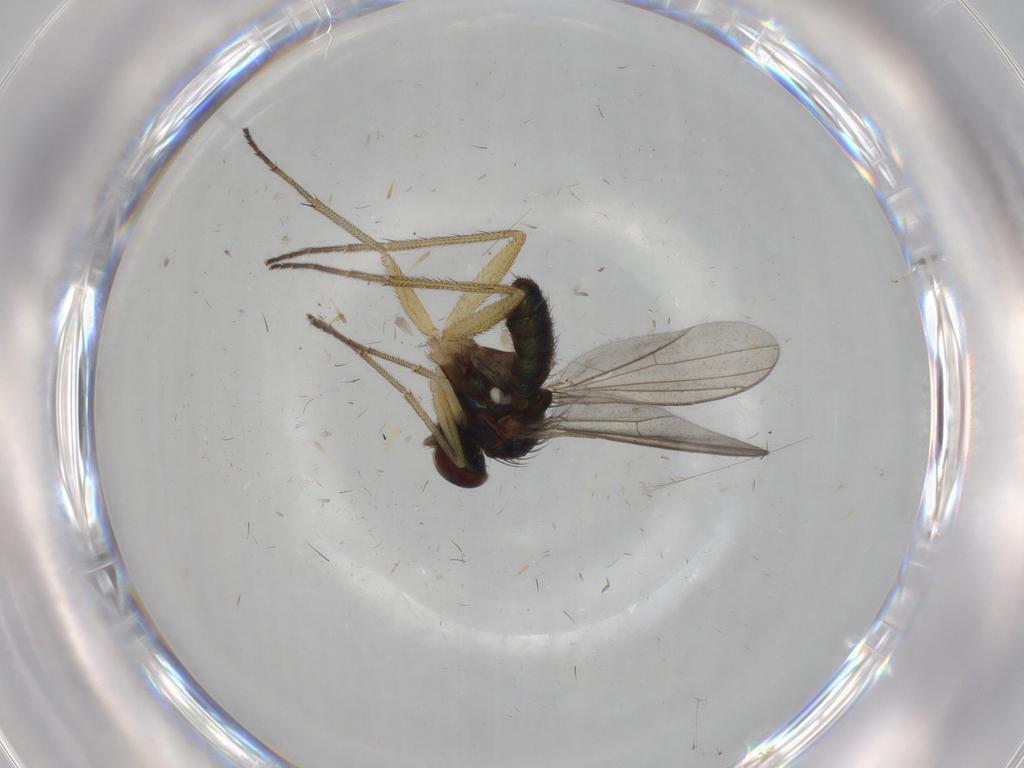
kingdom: Animalia
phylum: Arthropoda
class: Insecta
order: Diptera
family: Dolichopodidae
